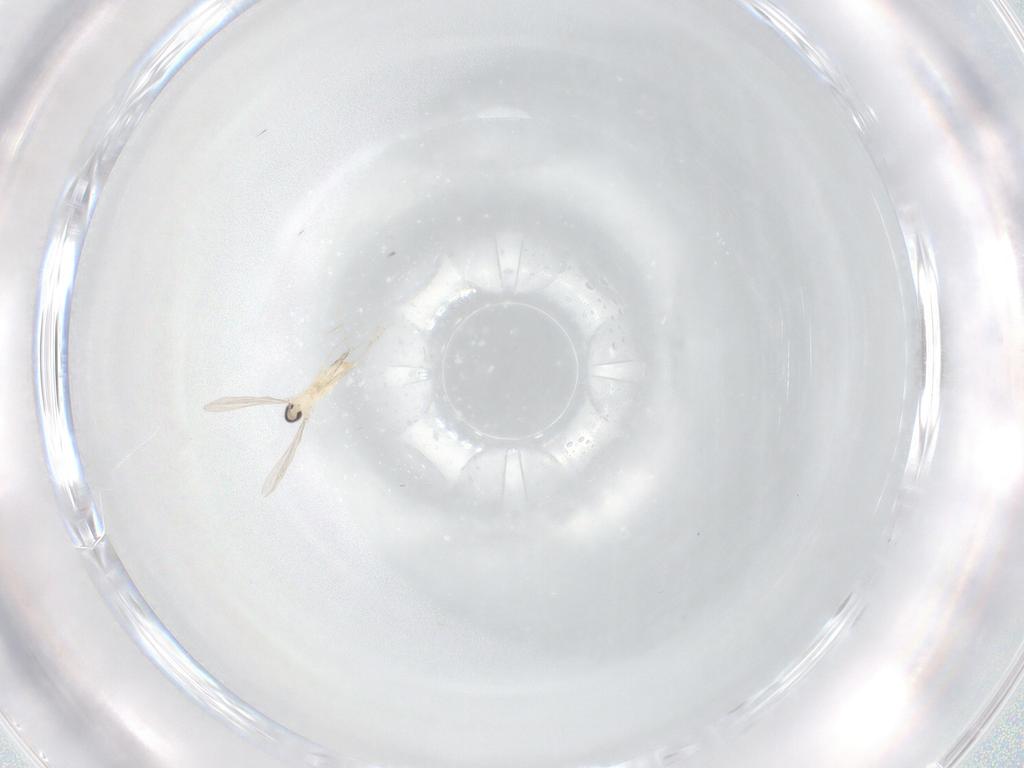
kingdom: Animalia
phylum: Arthropoda
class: Insecta
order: Diptera
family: Cecidomyiidae
